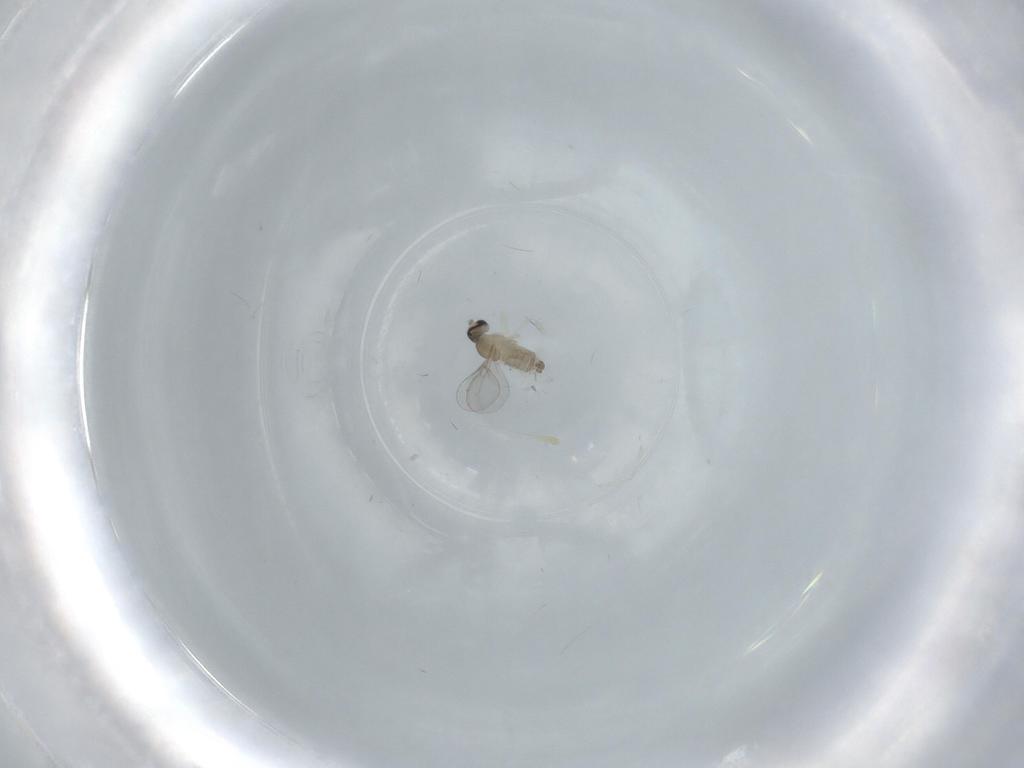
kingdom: Animalia
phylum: Arthropoda
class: Insecta
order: Diptera
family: Cecidomyiidae
